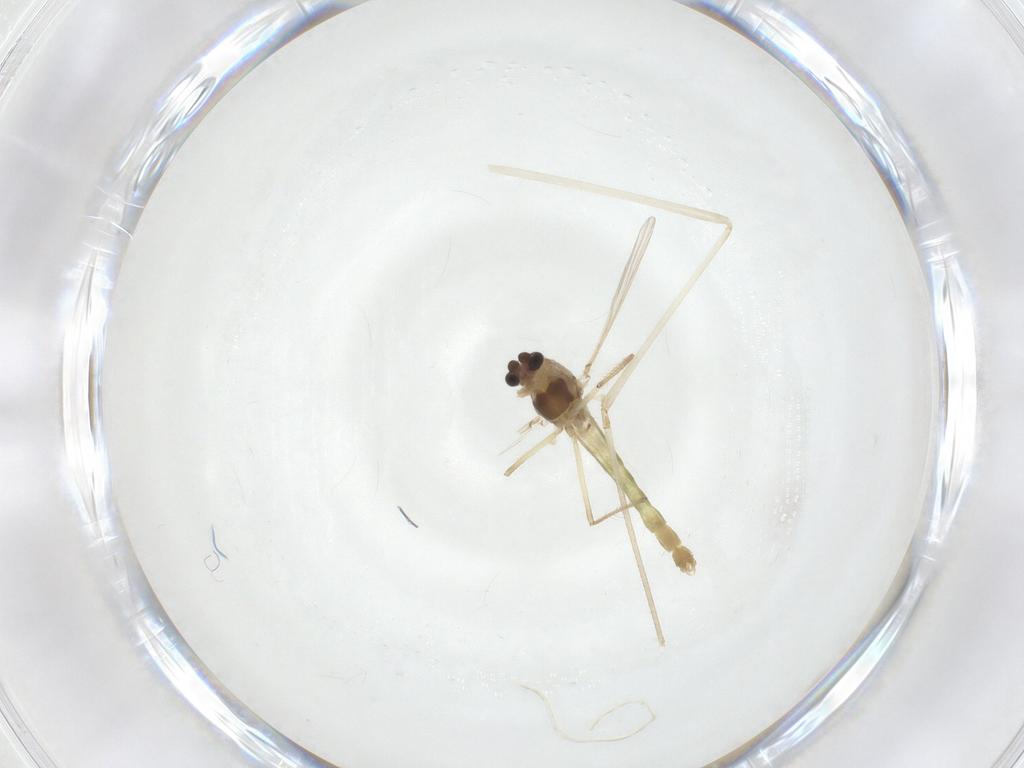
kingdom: Animalia
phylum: Arthropoda
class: Insecta
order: Diptera
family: Chironomidae
